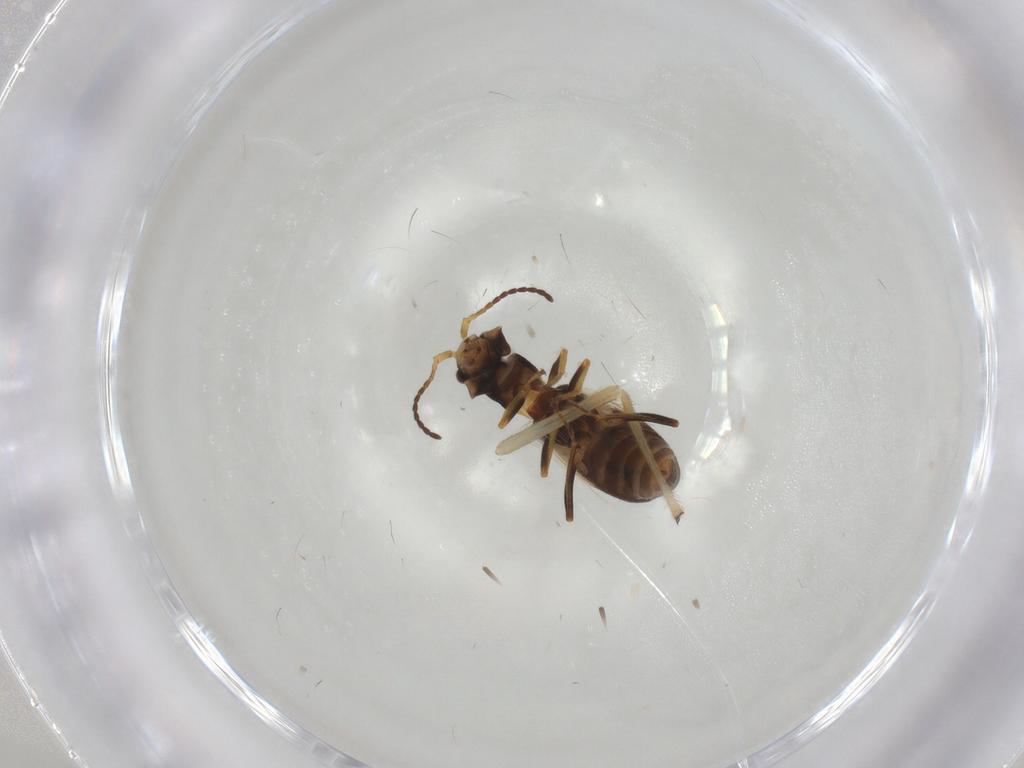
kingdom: Animalia
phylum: Arthropoda
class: Insecta
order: Coleoptera
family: Melyridae
